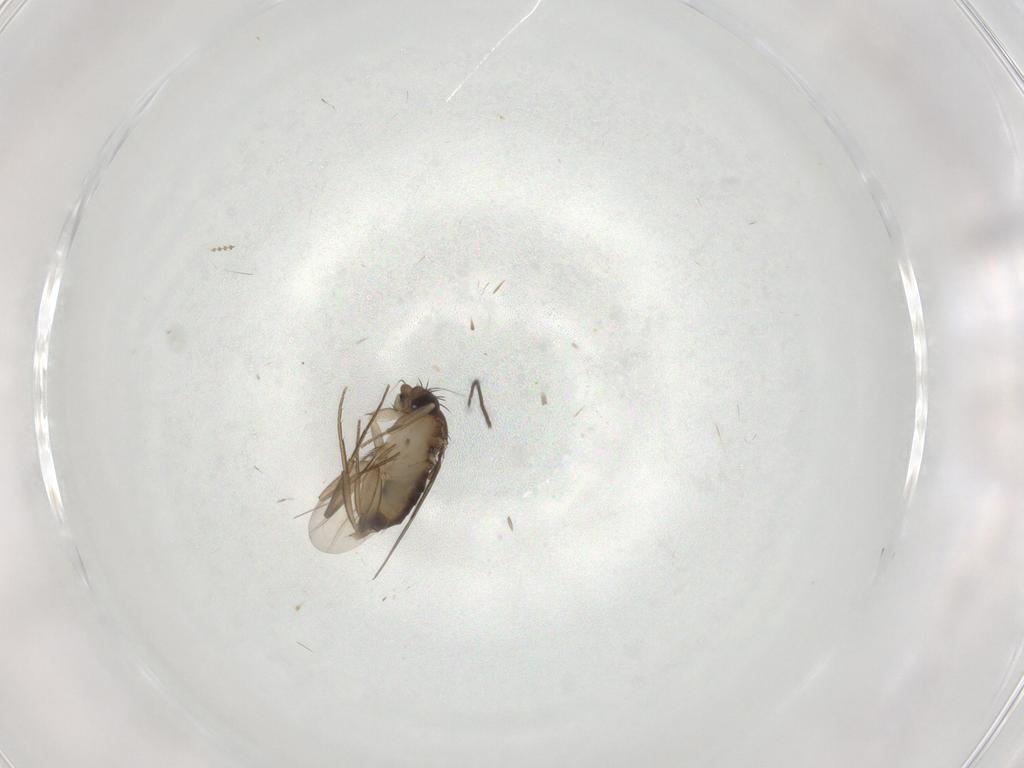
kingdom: Animalia
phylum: Arthropoda
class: Insecta
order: Diptera
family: Phoridae
